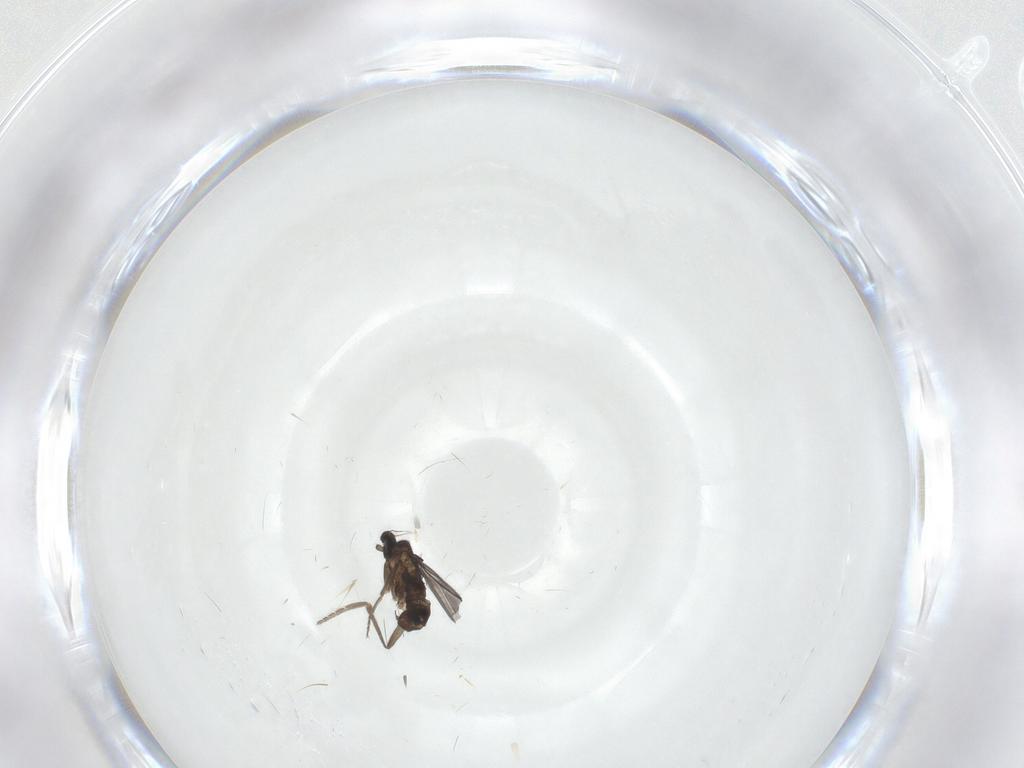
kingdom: Animalia
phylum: Arthropoda
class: Insecta
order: Diptera
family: Phoridae
